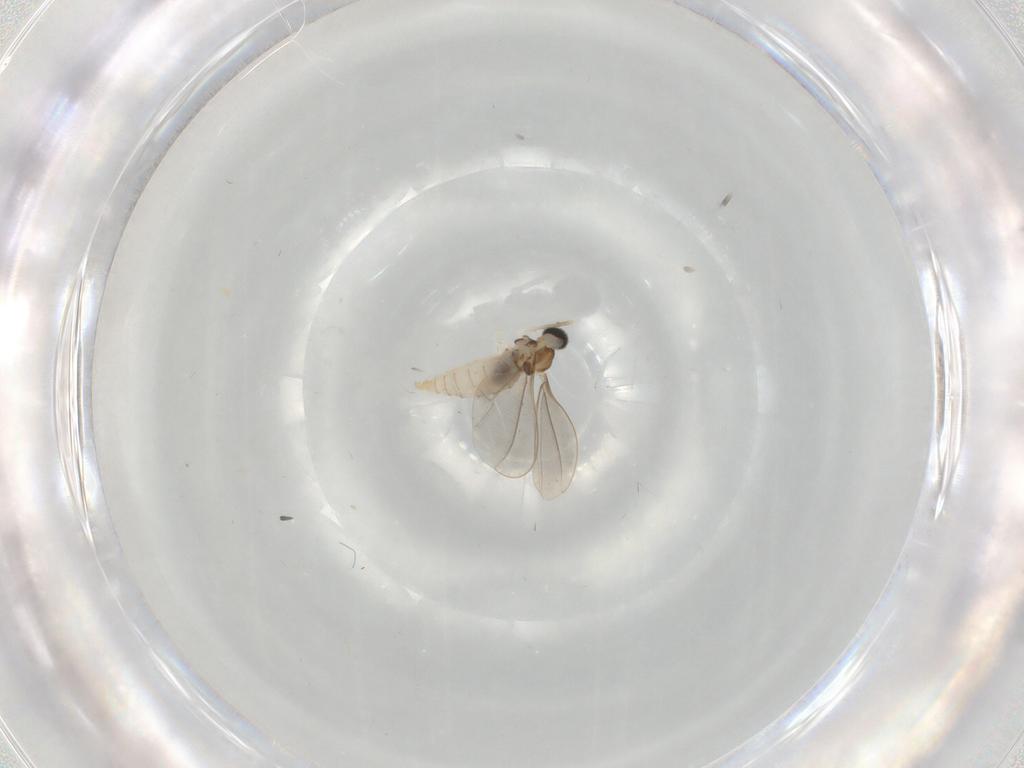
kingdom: Animalia
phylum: Arthropoda
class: Insecta
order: Diptera
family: Cecidomyiidae
